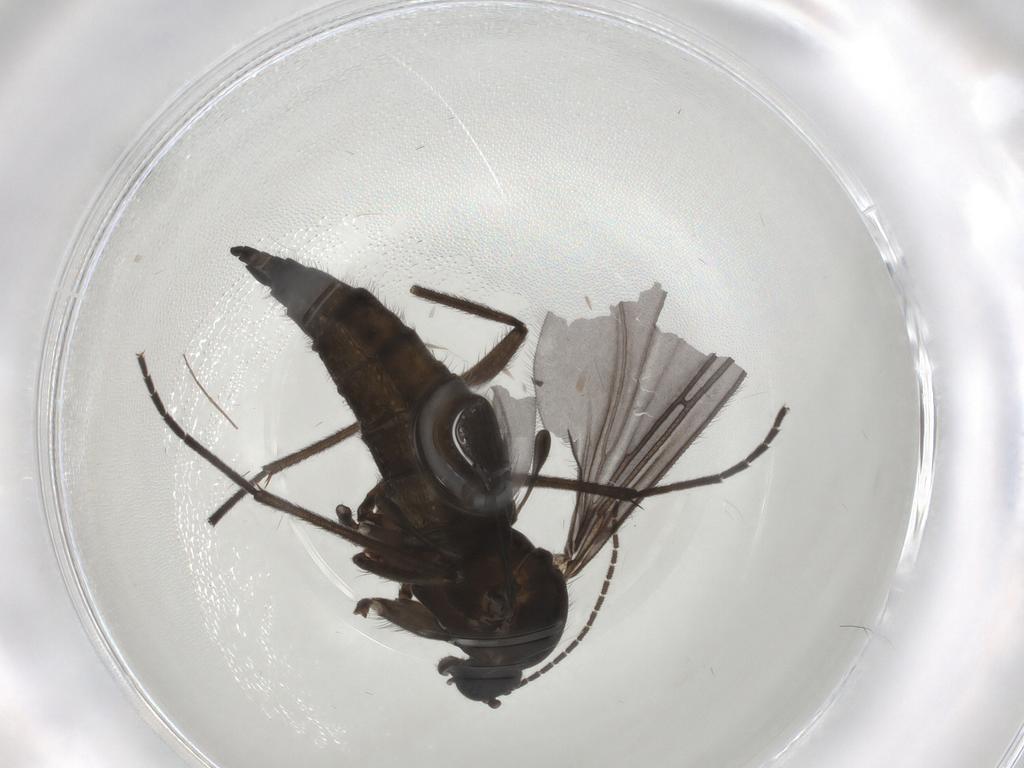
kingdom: Animalia
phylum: Arthropoda
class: Insecta
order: Diptera
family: Sciaridae
